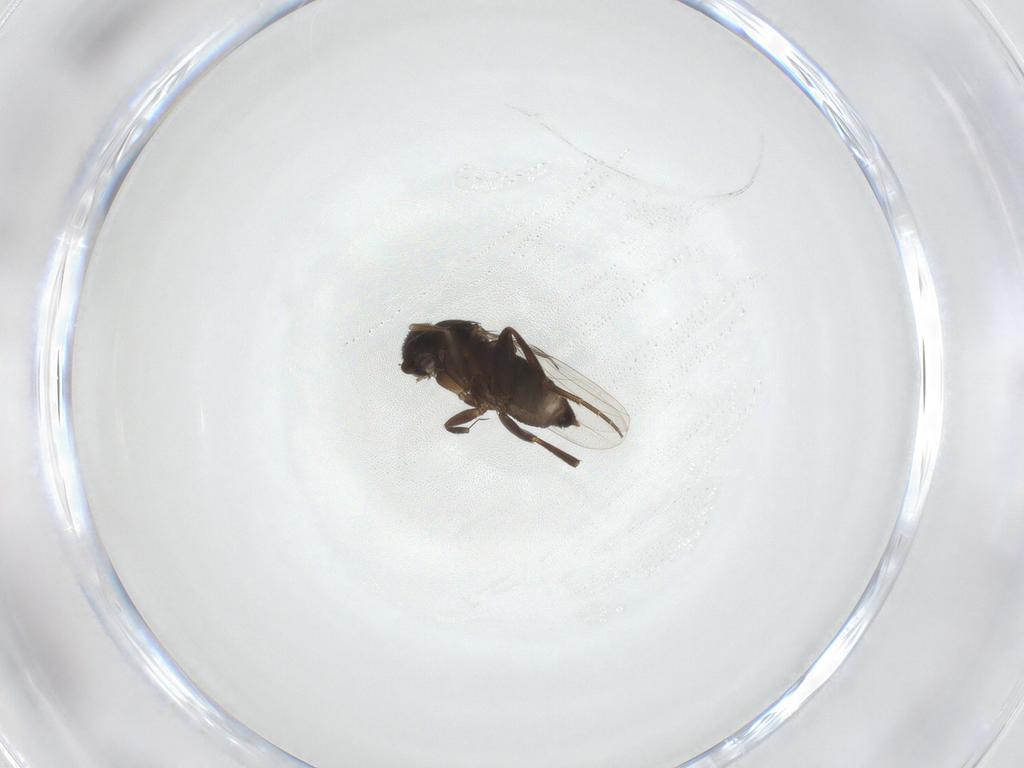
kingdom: Animalia
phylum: Arthropoda
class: Insecta
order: Diptera
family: Phoridae
